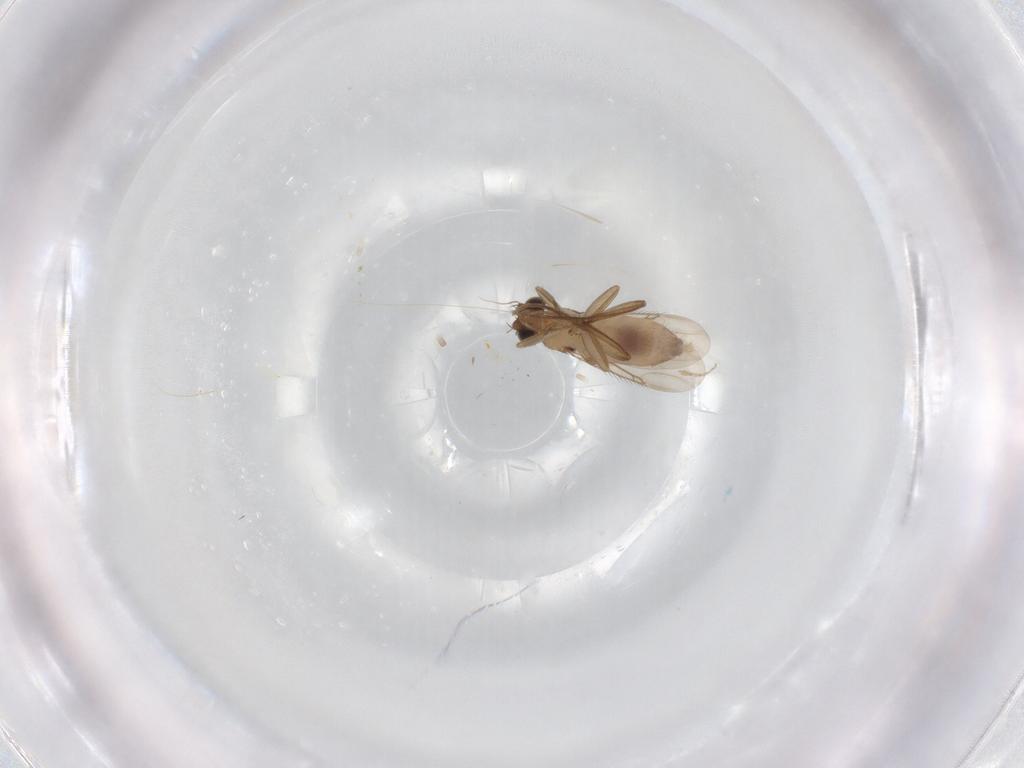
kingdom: Animalia
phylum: Arthropoda
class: Insecta
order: Diptera
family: Phoridae
